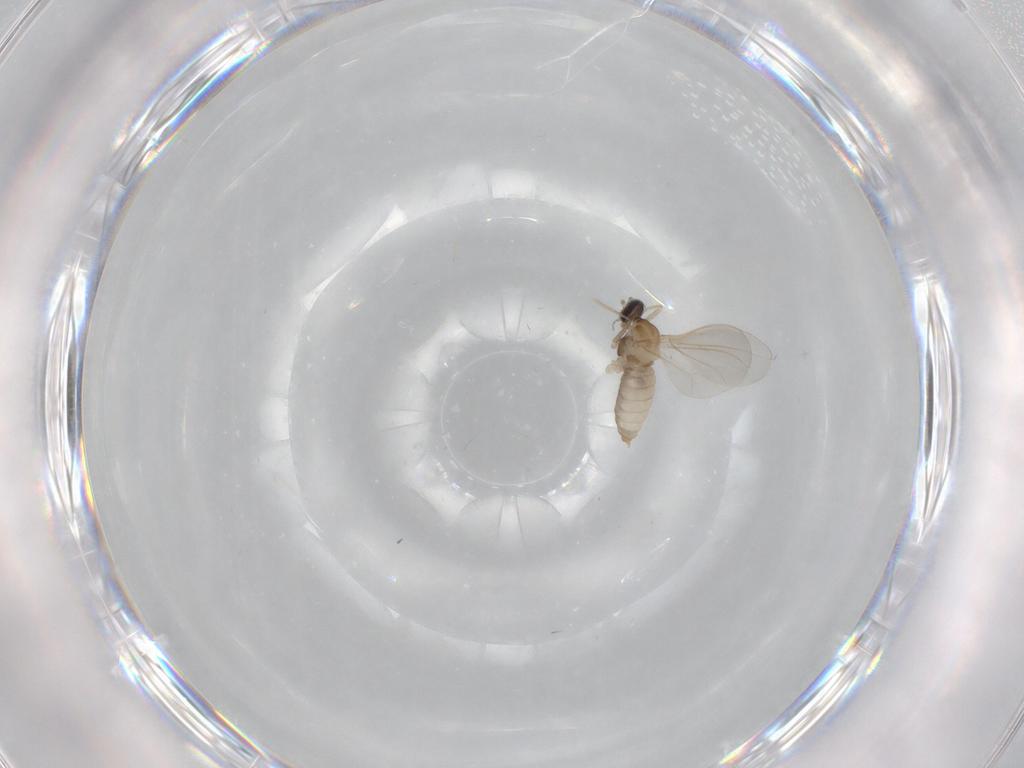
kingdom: Animalia
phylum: Arthropoda
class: Insecta
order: Diptera
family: Cecidomyiidae
